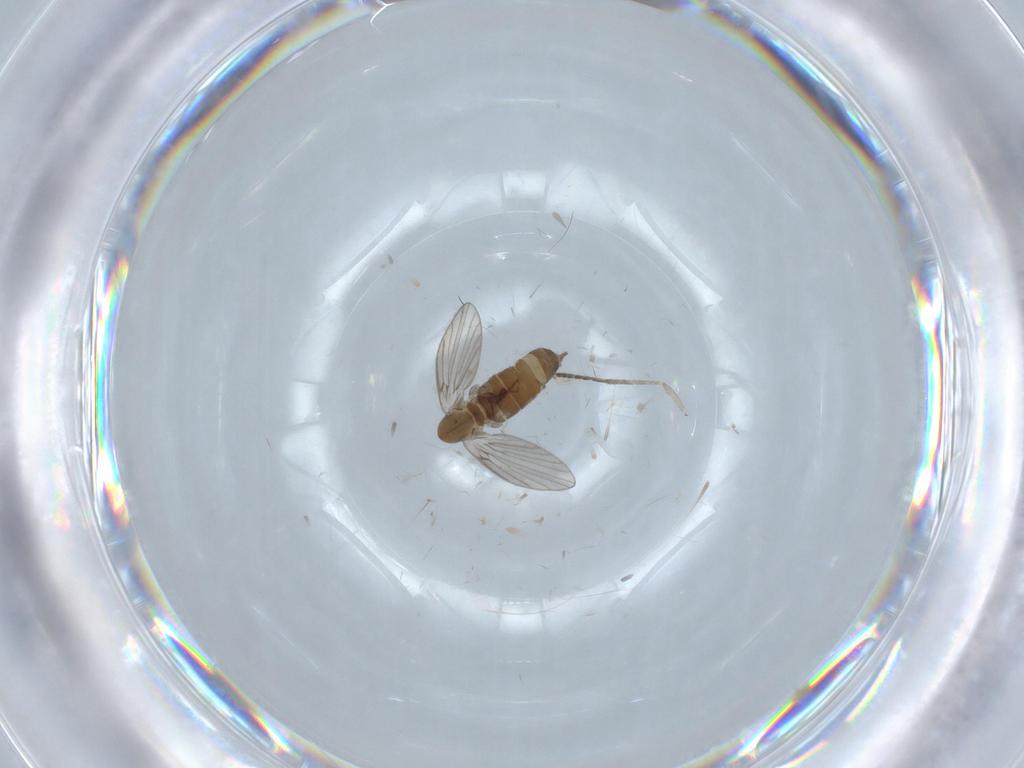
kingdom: Animalia
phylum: Arthropoda
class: Insecta
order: Diptera
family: Psychodidae
